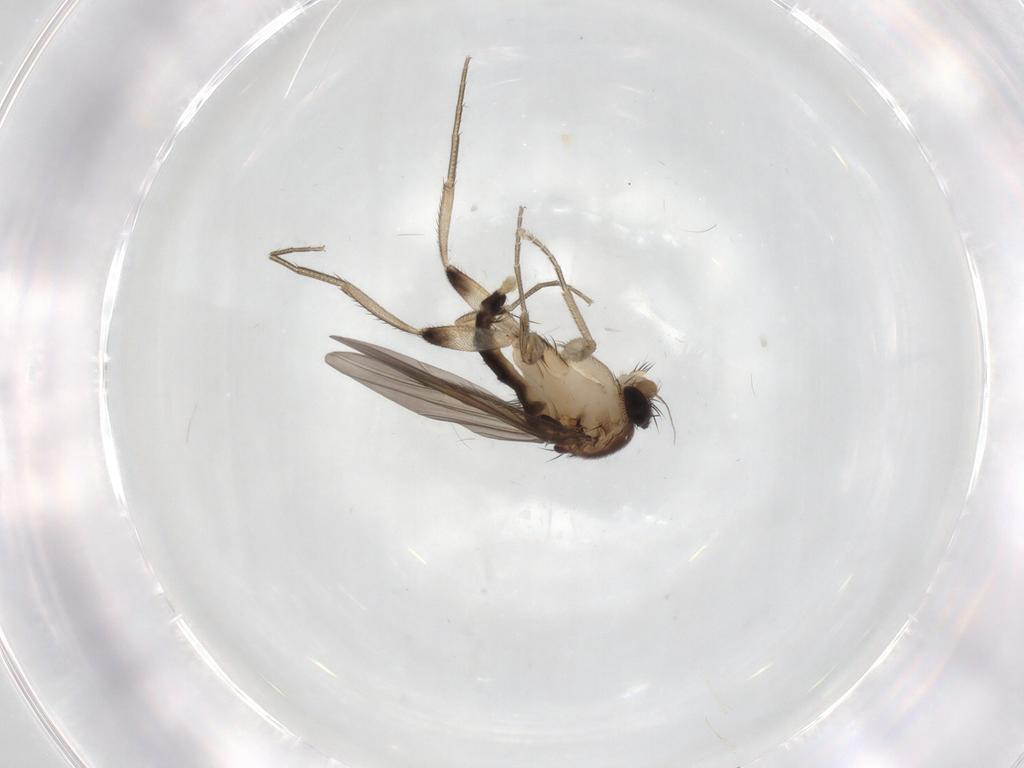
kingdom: Animalia
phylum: Arthropoda
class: Insecta
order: Diptera
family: Phoridae
